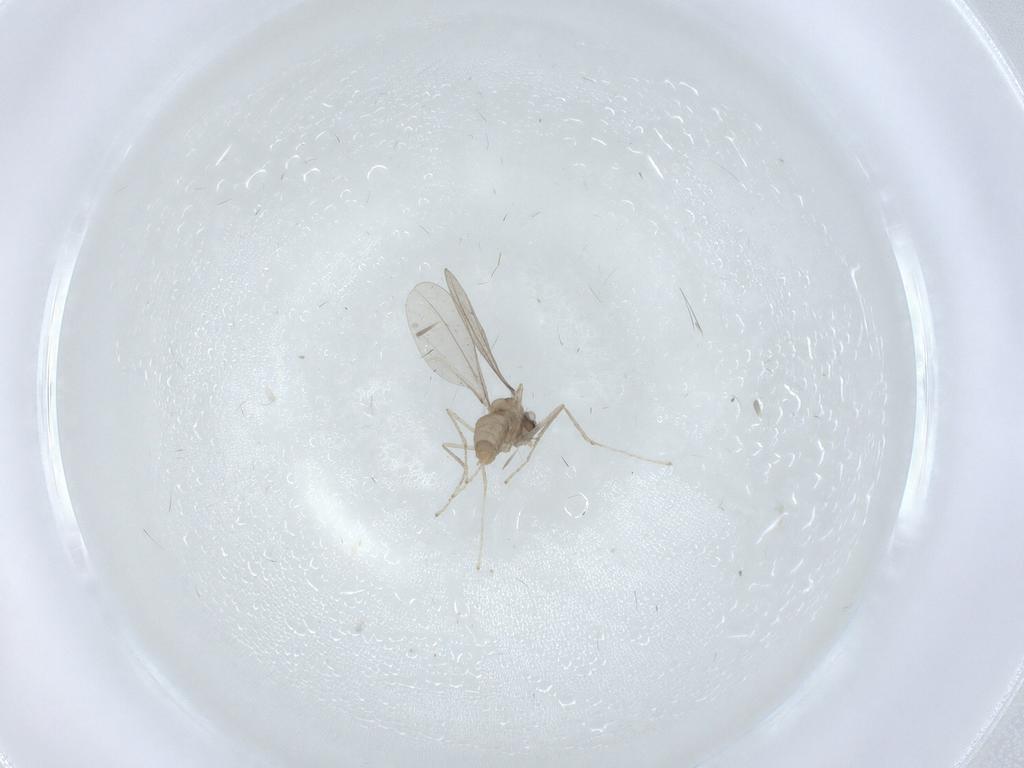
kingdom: Animalia
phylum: Arthropoda
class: Insecta
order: Diptera
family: Cecidomyiidae
